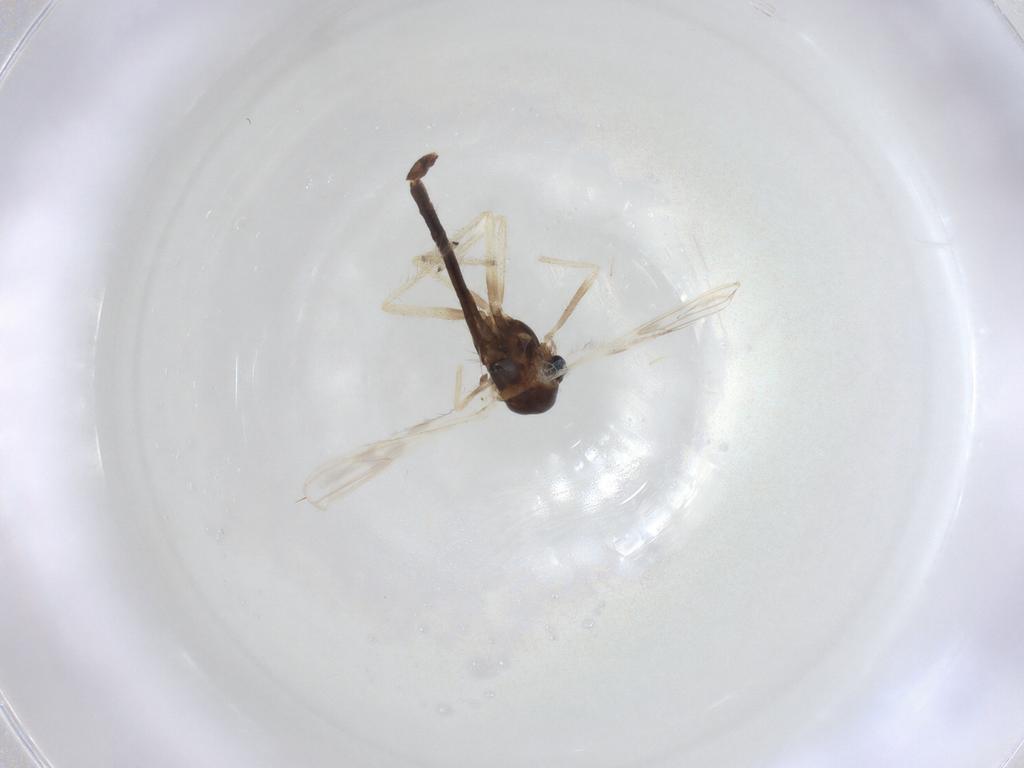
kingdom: Animalia
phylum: Arthropoda
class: Insecta
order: Diptera
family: Chironomidae
